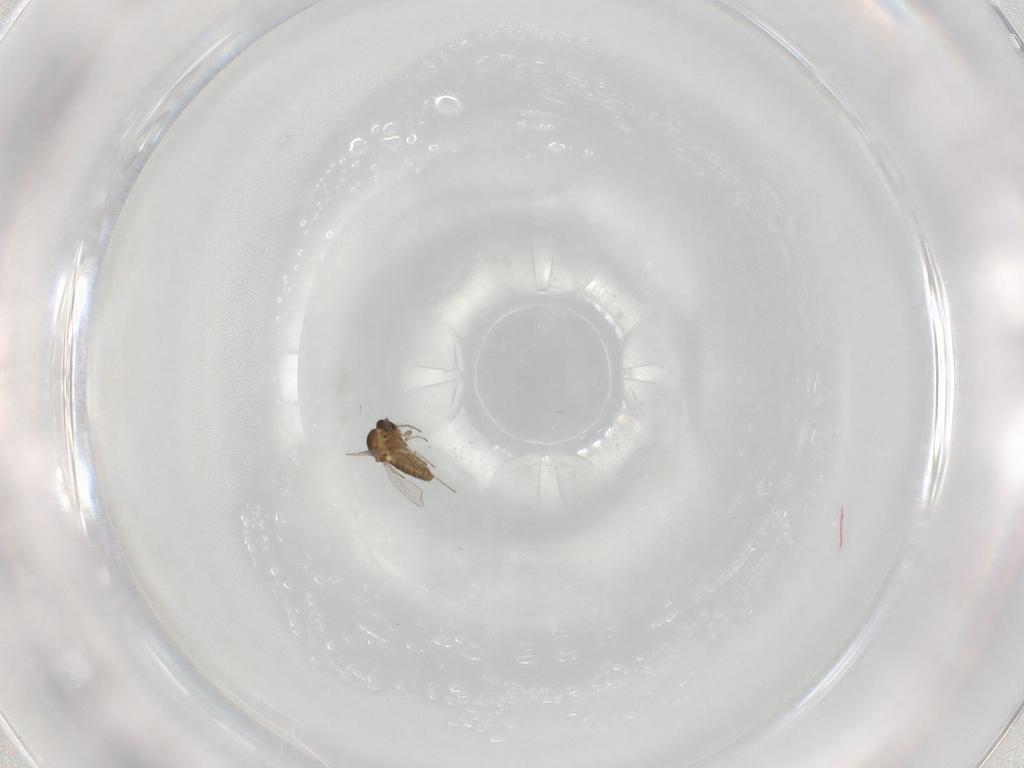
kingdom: Animalia
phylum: Arthropoda
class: Insecta
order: Diptera
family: Ceratopogonidae
